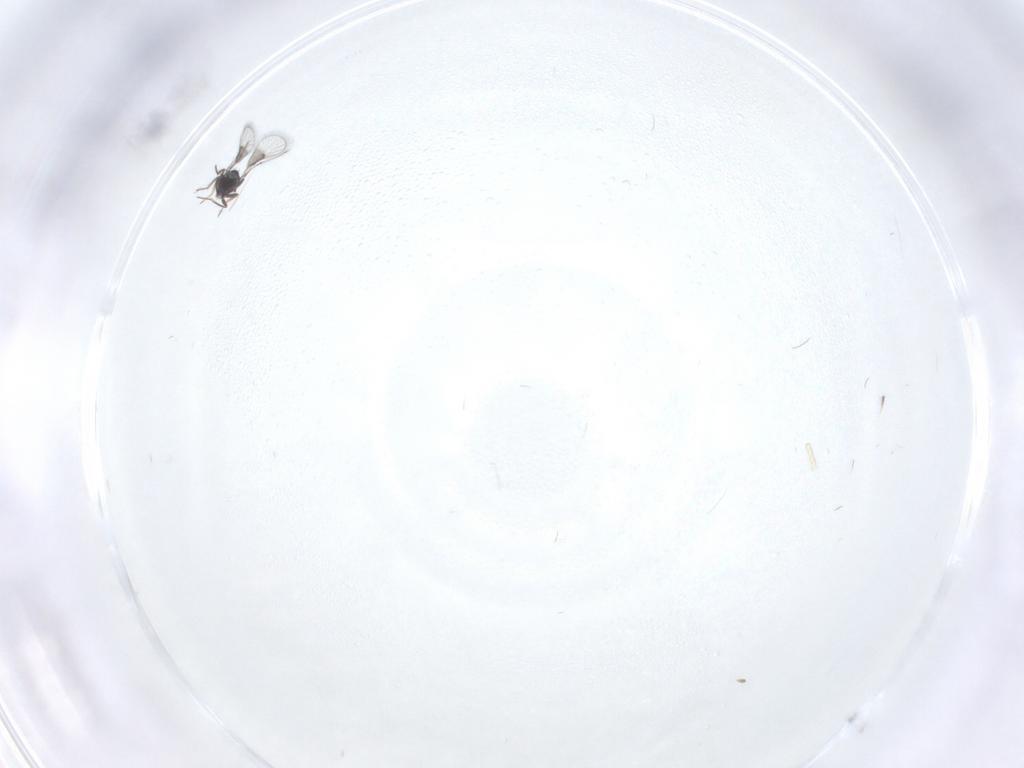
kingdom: Animalia
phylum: Arthropoda
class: Insecta
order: Hymenoptera
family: Trichogrammatidae
